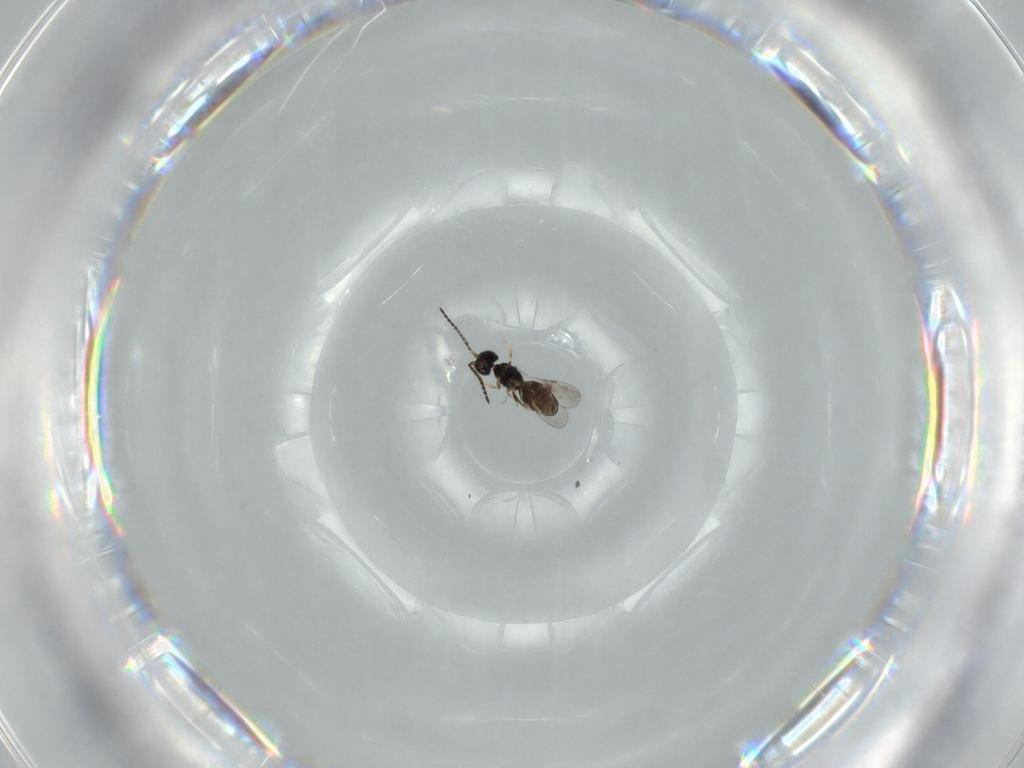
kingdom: Animalia
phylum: Arthropoda
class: Insecta
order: Hymenoptera
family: Ceraphronidae
